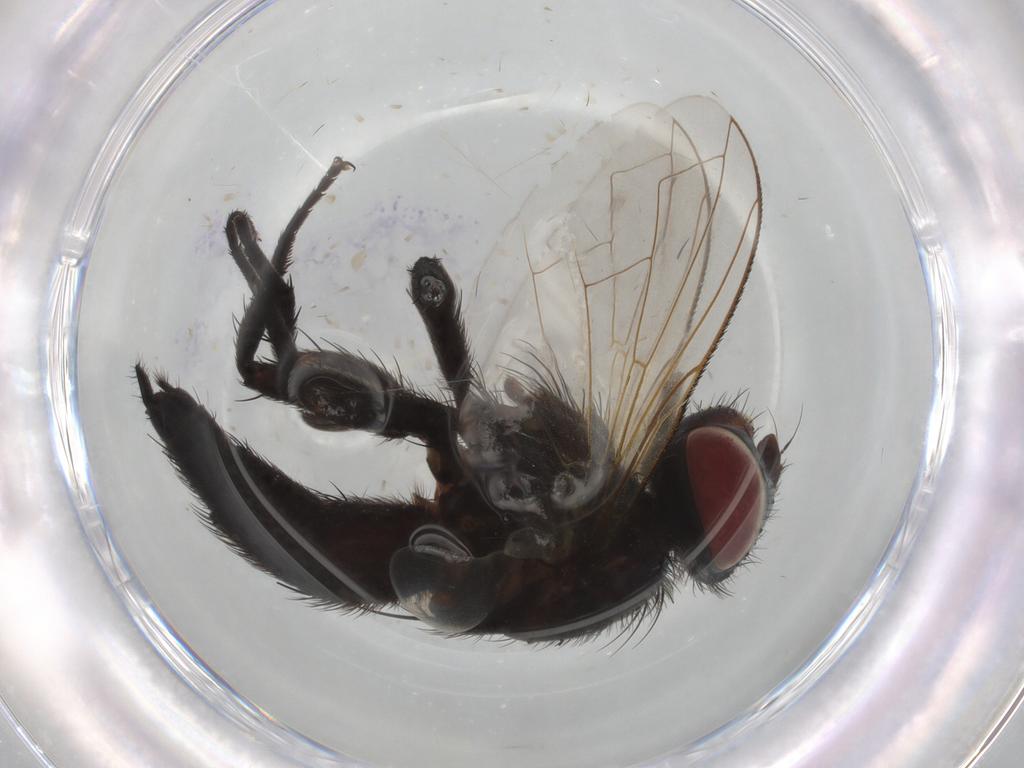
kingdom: Animalia
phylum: Arthropoda
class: Insecta
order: Diptera
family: Tachinidae
